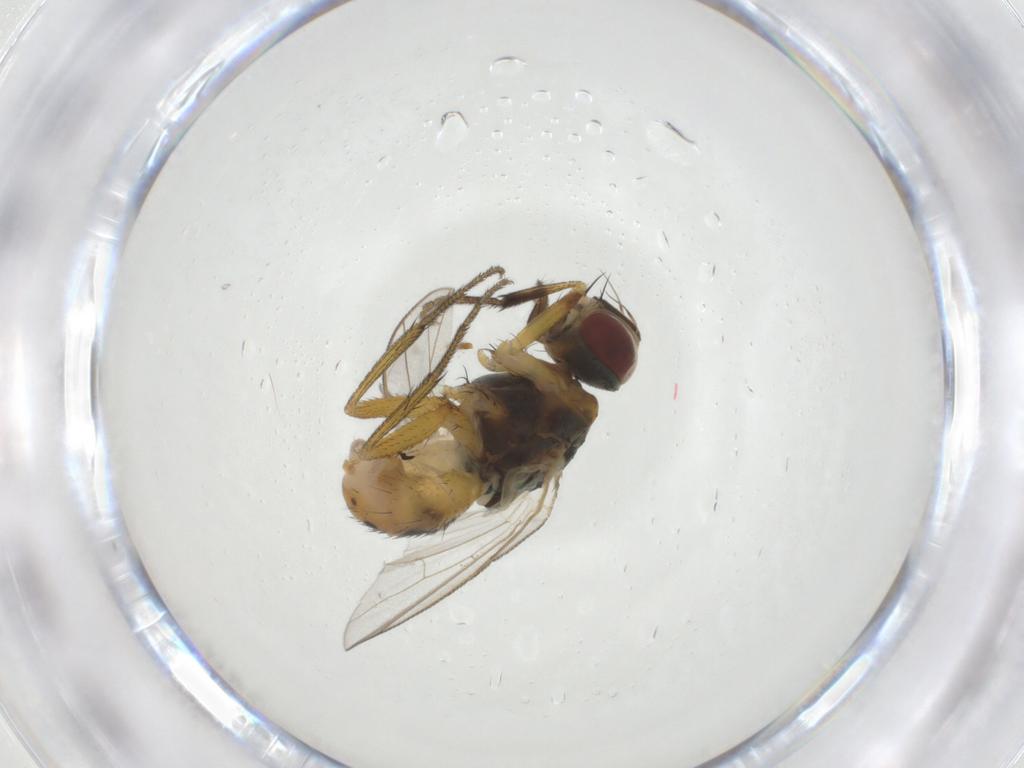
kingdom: Animalia
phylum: Arthropoda
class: Insecta
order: Diptera
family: Muscidae
